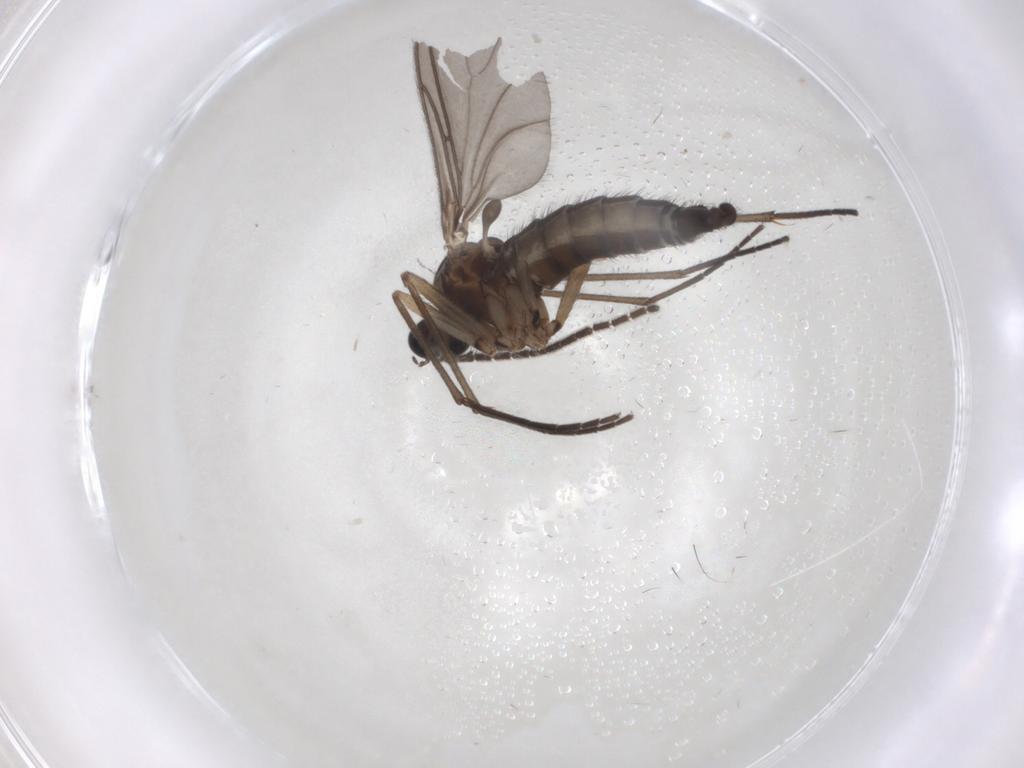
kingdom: Animalia
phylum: Arthropoda
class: Insecta
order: Diptera
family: Sciaridae
